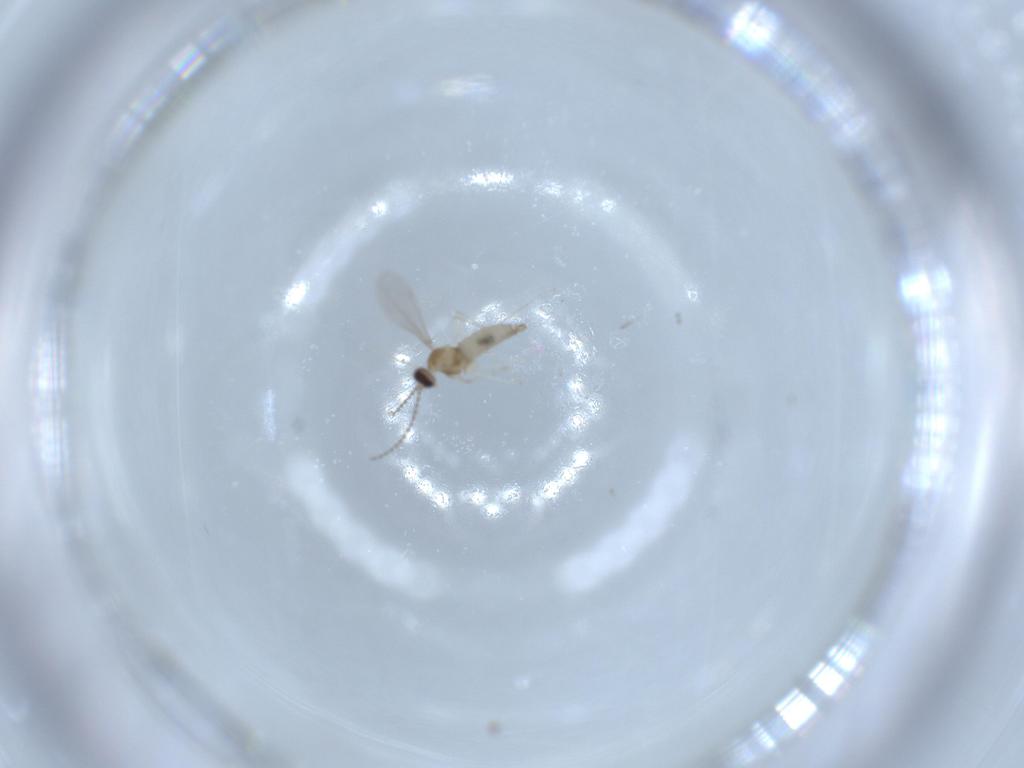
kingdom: Animalia
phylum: Arthropoda
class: Insecta
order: Diptera
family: Cecidomyiidae
